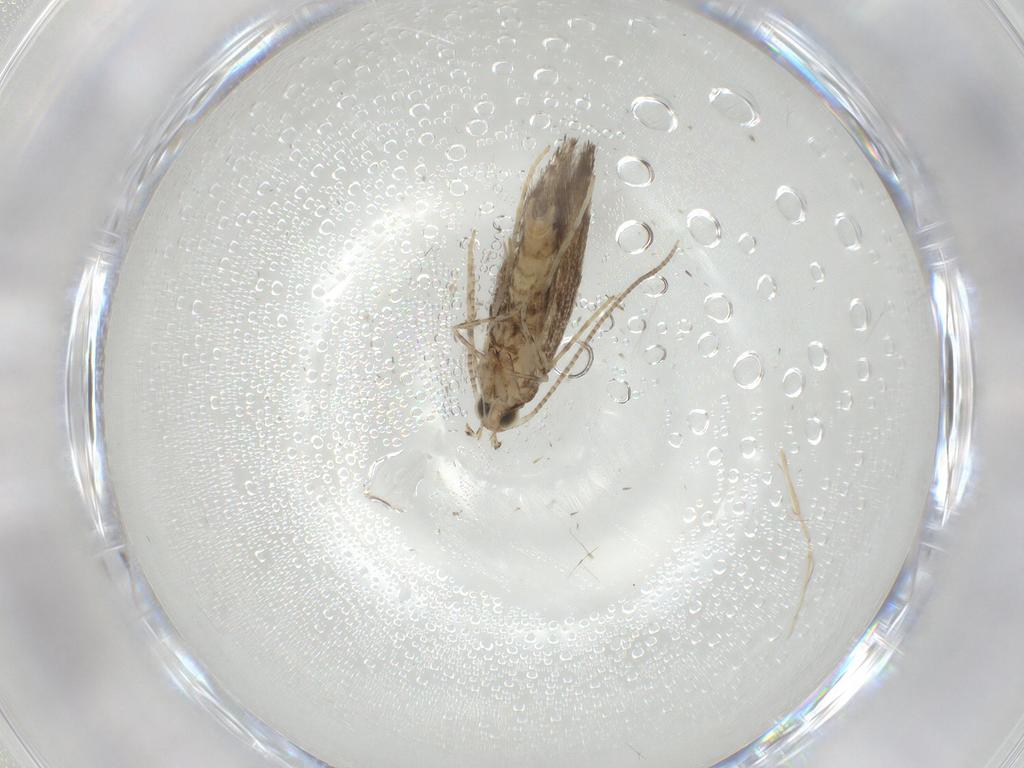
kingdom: Animalia
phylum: Arthropoda
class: Insecta
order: Lepidoptera
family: Gracillariidae
